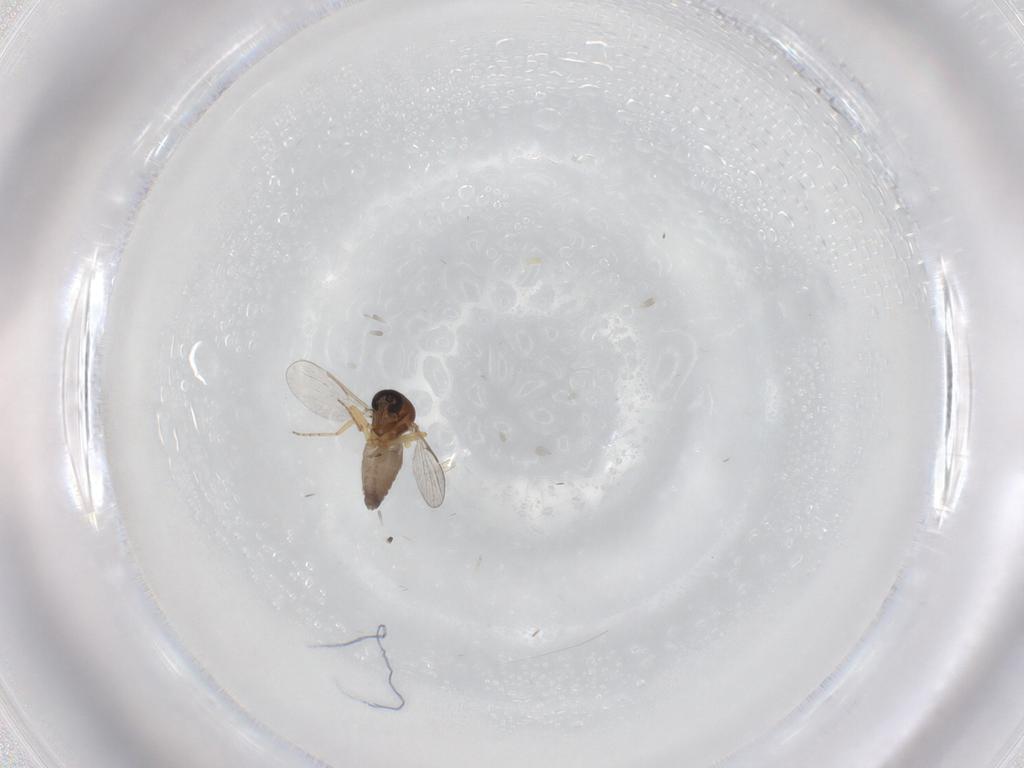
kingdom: Animalia
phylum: Arthropoda
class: Insecta
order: Diptera
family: Ceratopogonidae
